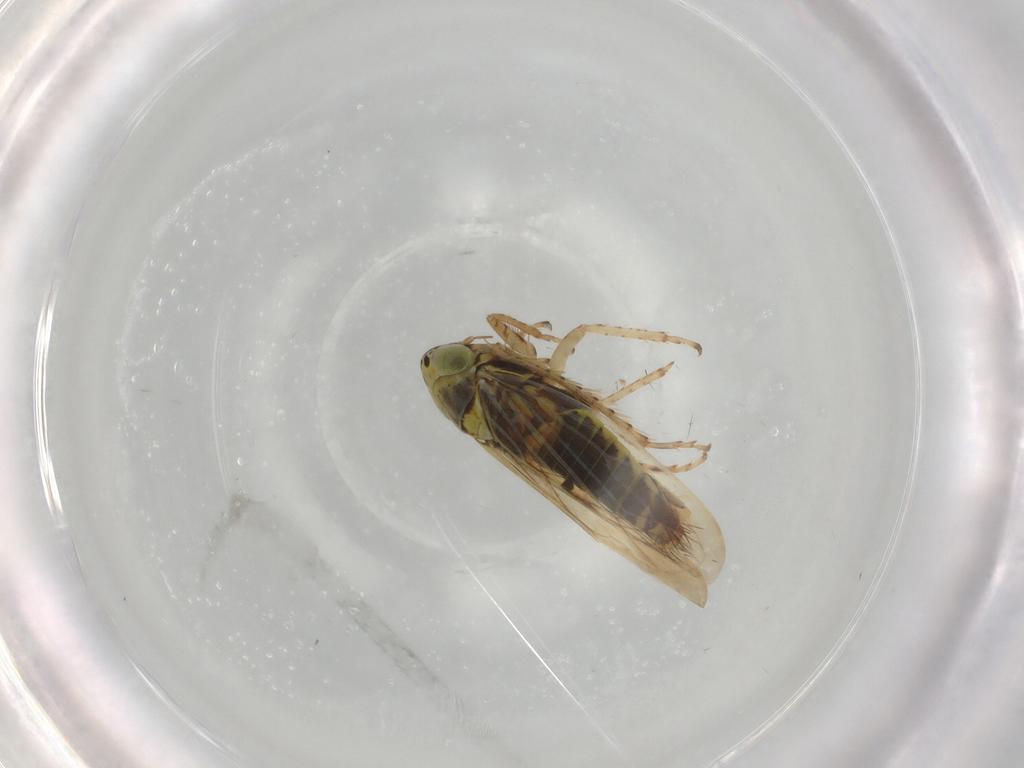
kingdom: Animalia
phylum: Arthropoda
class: Insecta
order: Hemiptera
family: Cicadellidae
